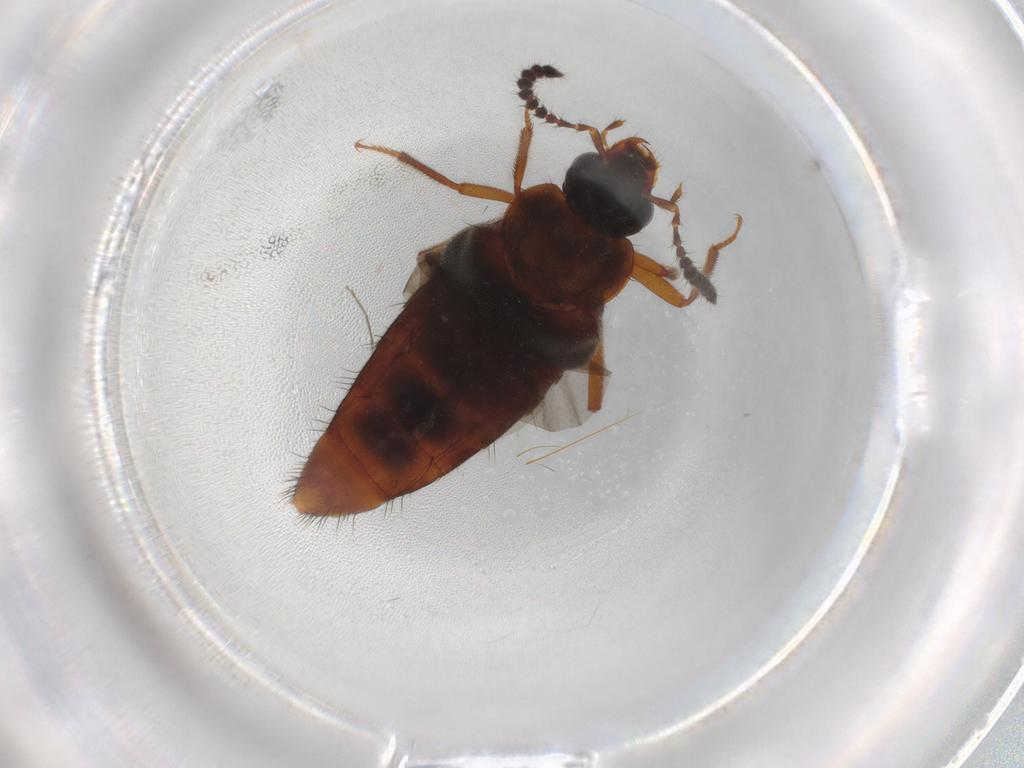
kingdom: Animalia
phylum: Arthropoda
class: Insecta
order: Coleoptera
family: Staphylinidae
